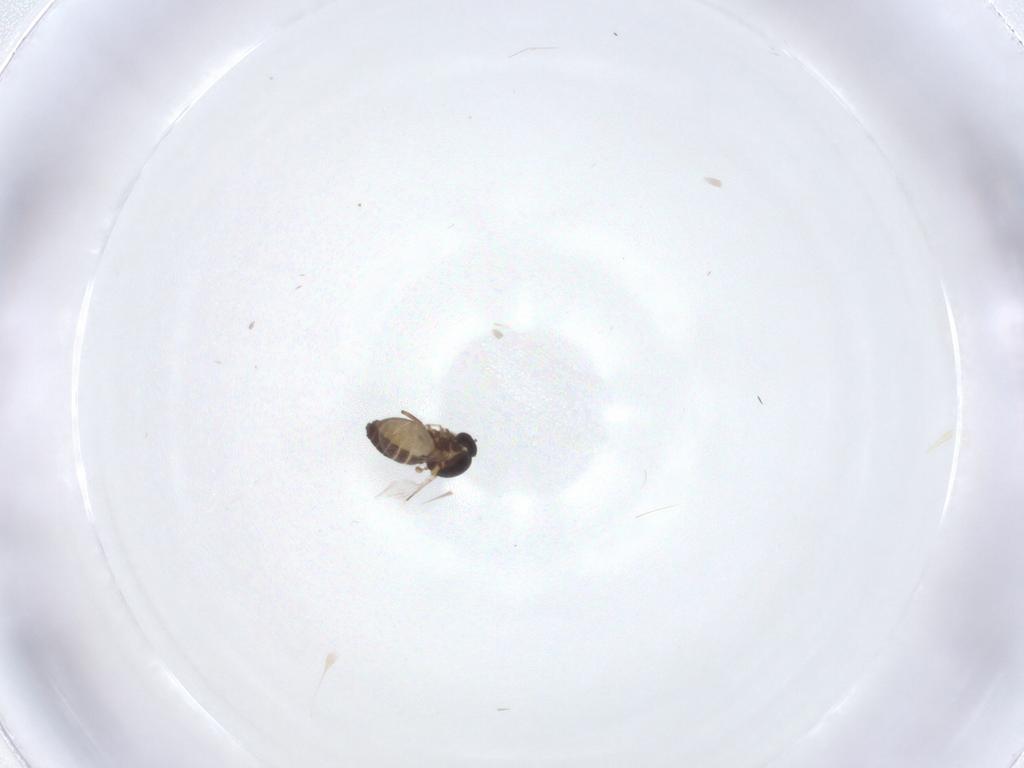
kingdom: Animalia
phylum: Arthropoda
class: Insecta
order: Diptera
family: Ceratopogonidae
